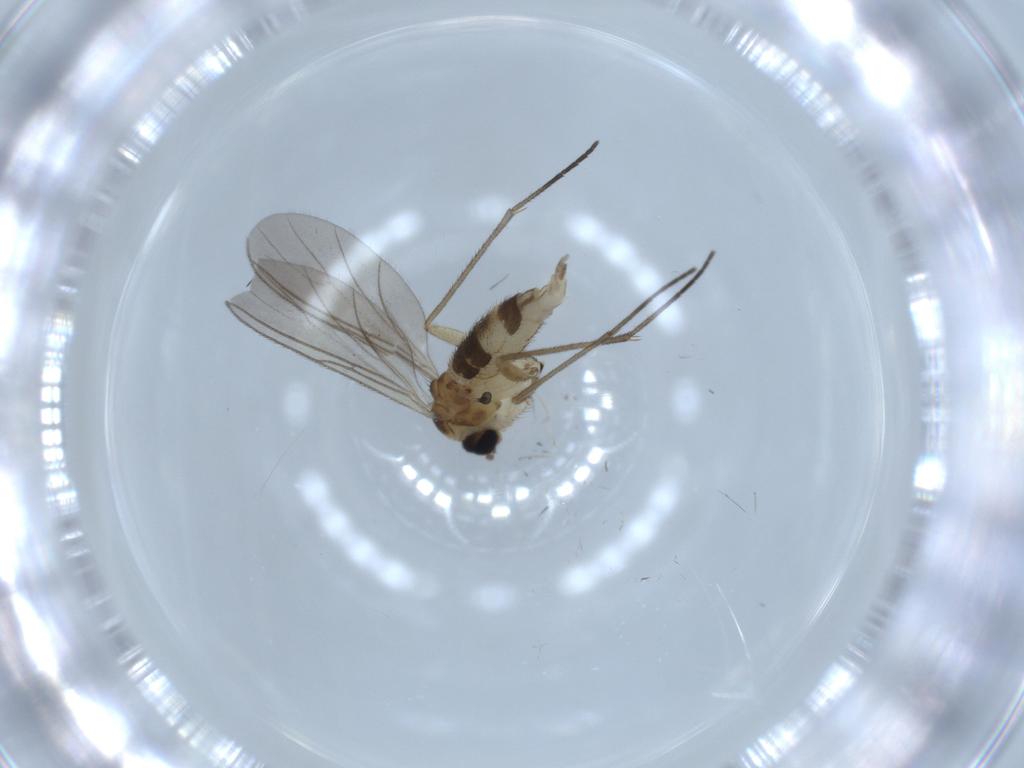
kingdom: Animalia
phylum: Arthropoda
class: Insecta
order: Diptera
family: Sciaridae
